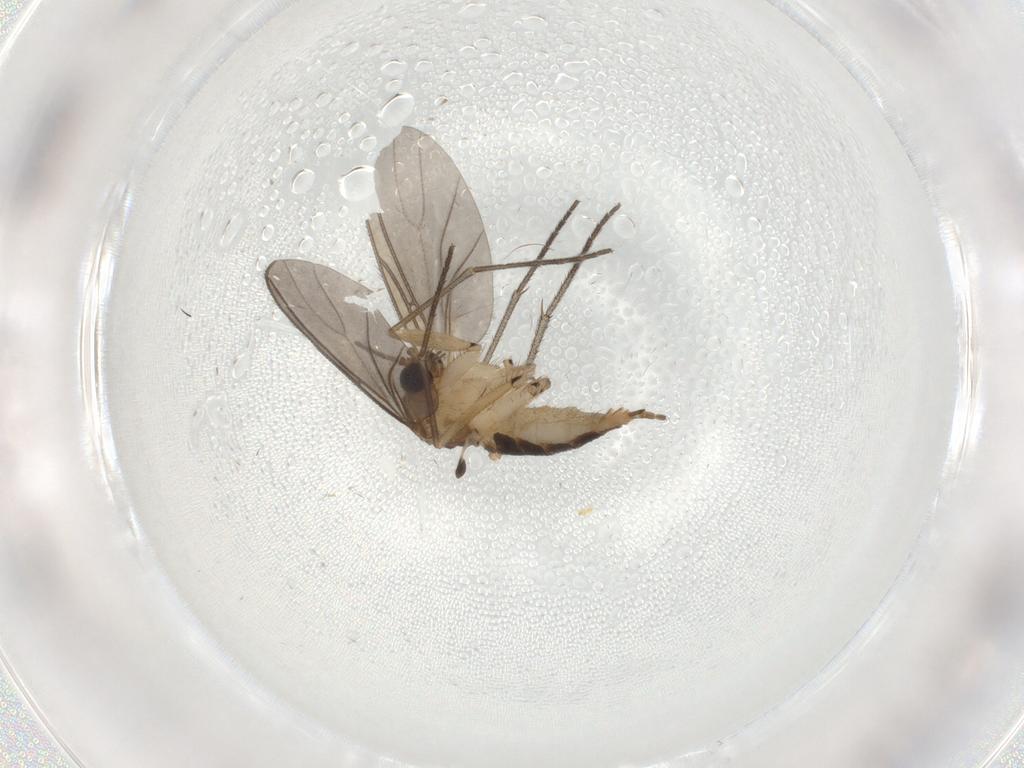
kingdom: Animalia
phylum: Arthropoda
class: Insecta
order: Diptera
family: Sciaridae
